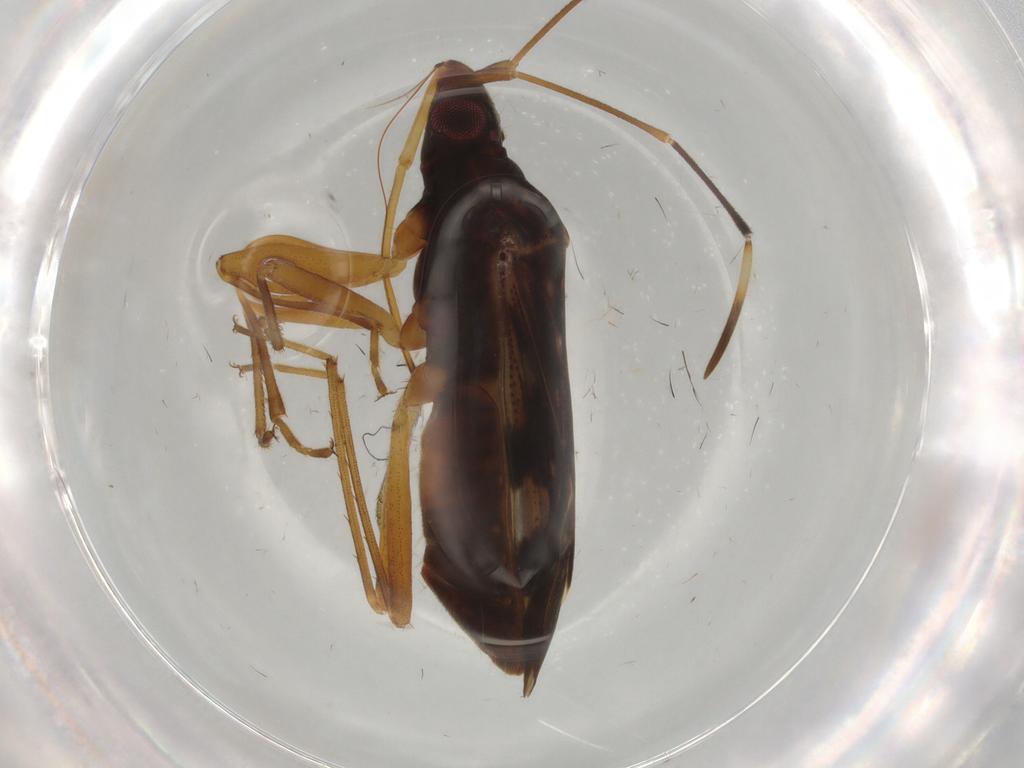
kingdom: Animalia
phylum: Arthropoda
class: Insecta
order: Hemiptera
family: Rhyparochromidae
